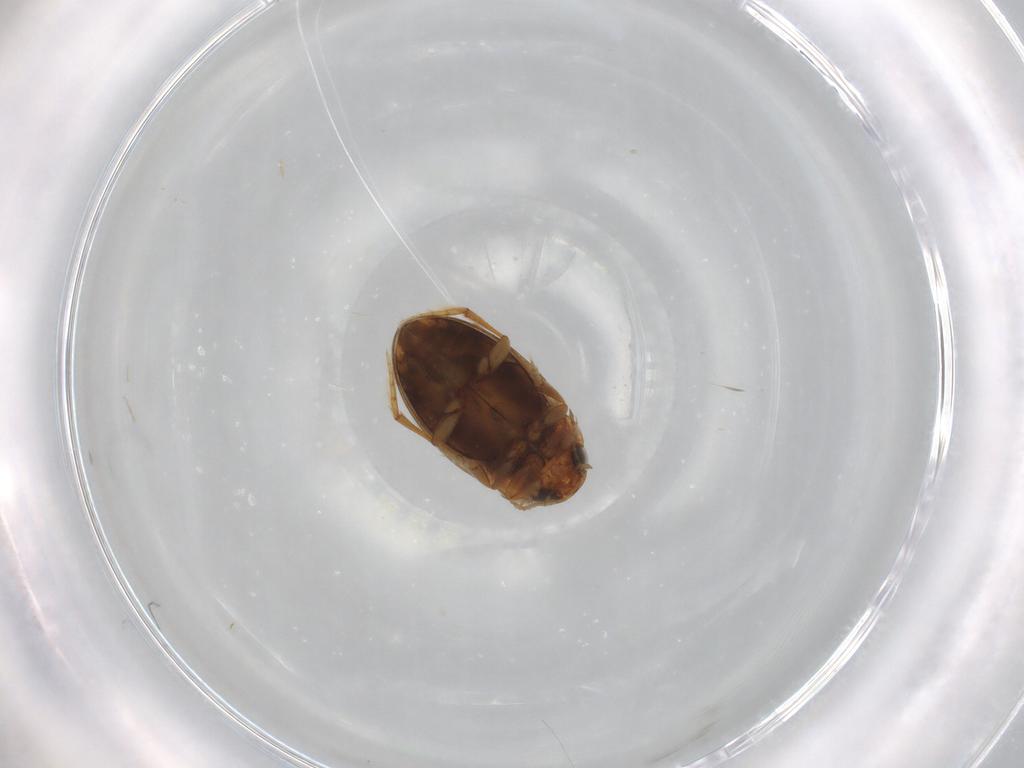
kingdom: Animalia
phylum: Arthropoda
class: Insecta
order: Coleoptera
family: Dytiscidae
